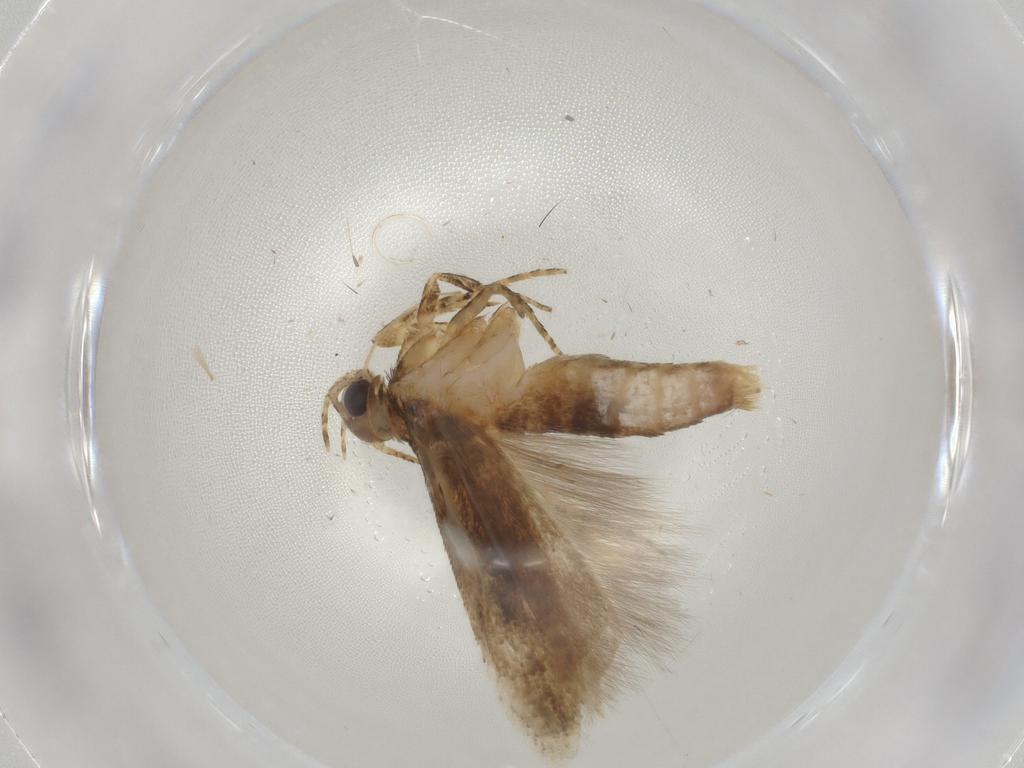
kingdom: Animalia
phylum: Arthropoda
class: Insecta
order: Lepidoptera
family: Gelechiidae
